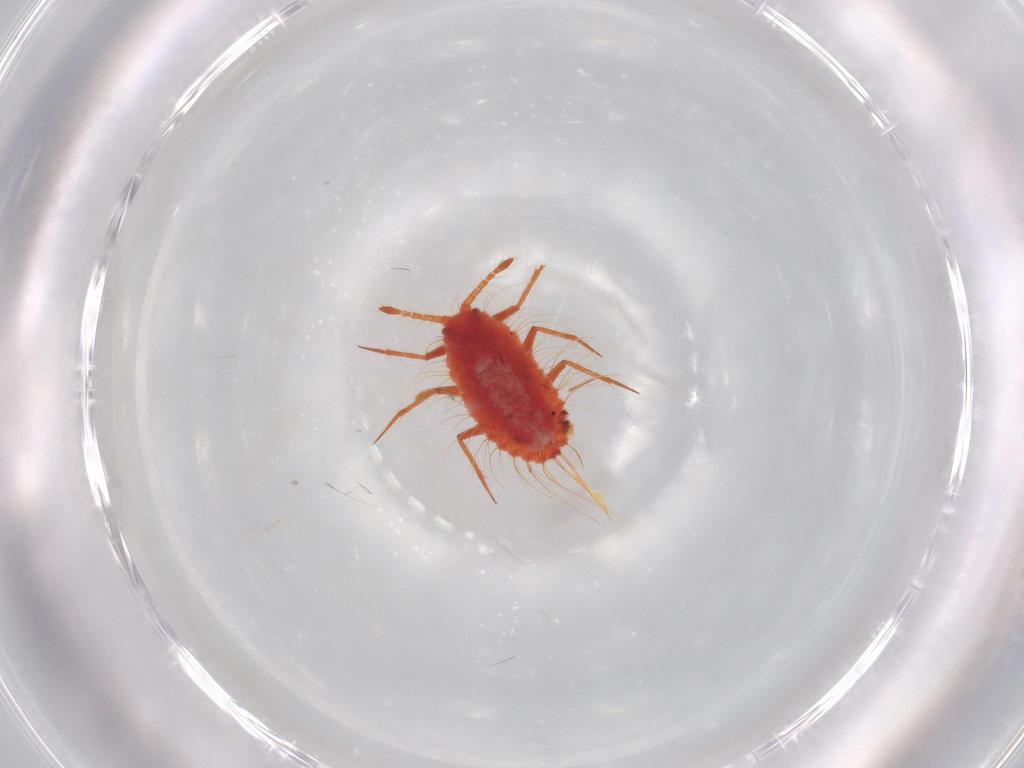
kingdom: Animalia
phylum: Arthropoda
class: Insecta
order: Hemiptera
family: Monophlebidae
